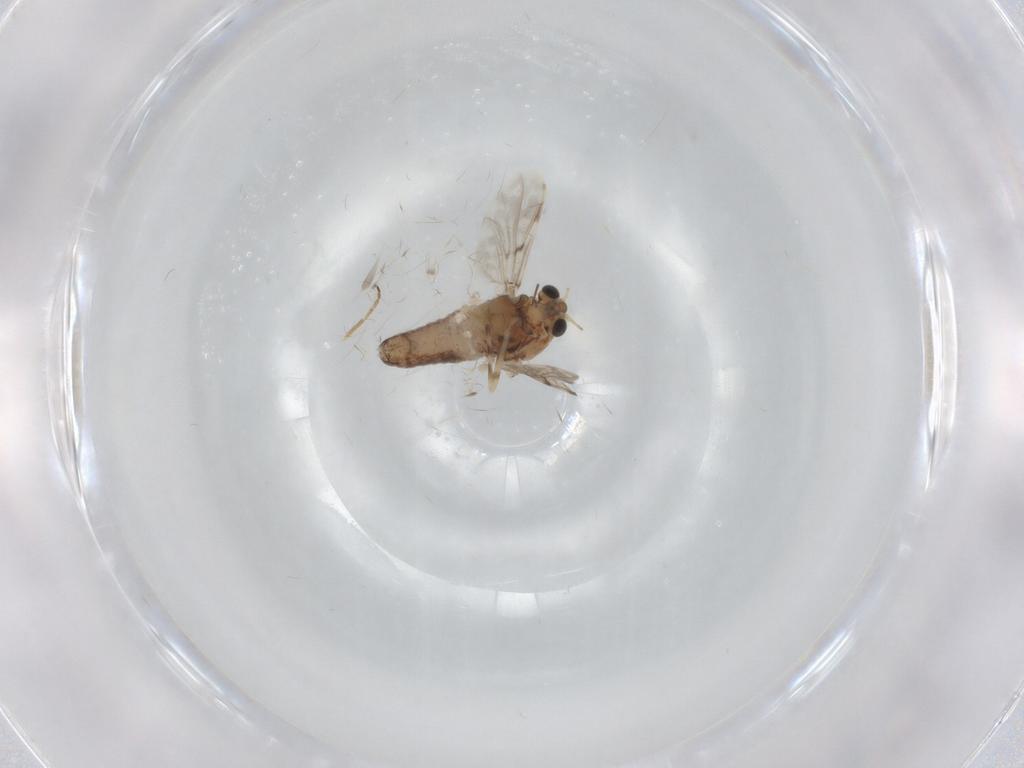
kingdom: Animalia
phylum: Arthropoda
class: Insecta
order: Diptera
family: Chironomidae
